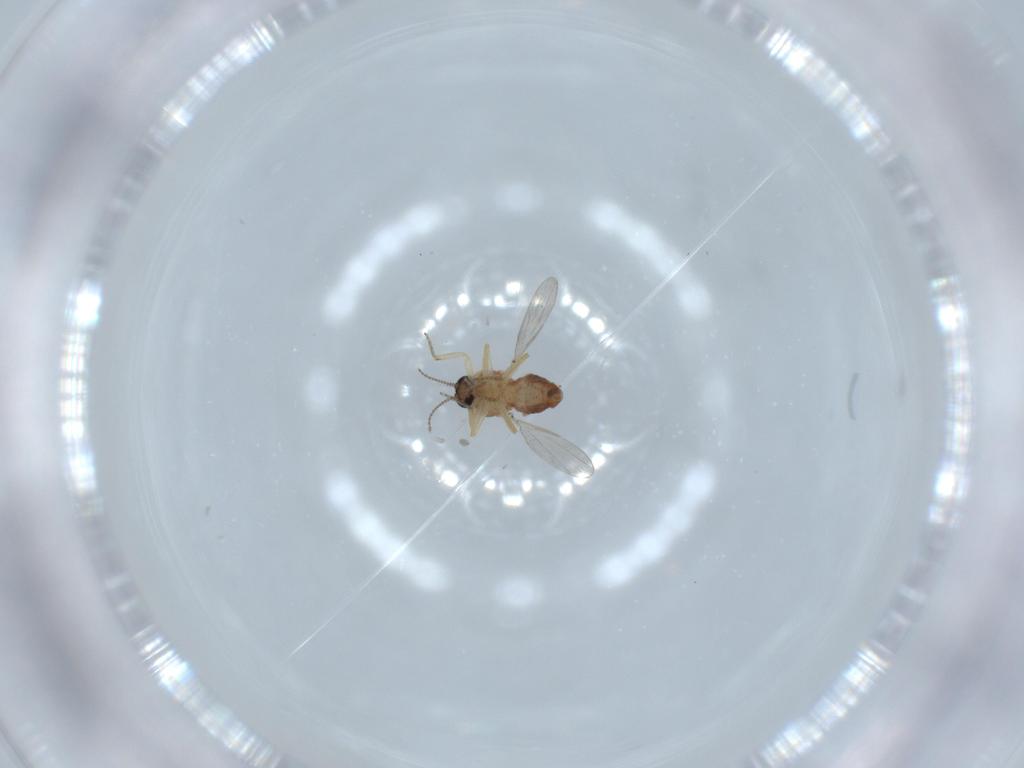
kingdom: Animalia
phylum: Arthropoda
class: Insecta
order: Diptera
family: Ceratopogonidae
